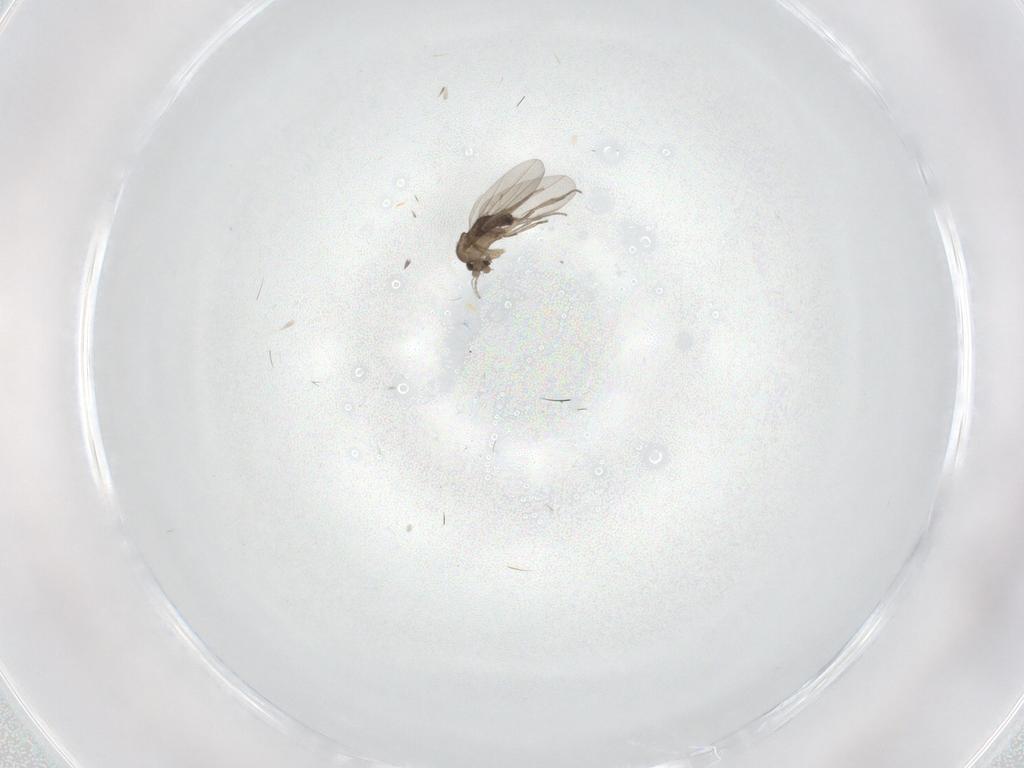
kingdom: Animalia
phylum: Arthropoda
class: Insecta
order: Diptera
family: Phoridae
